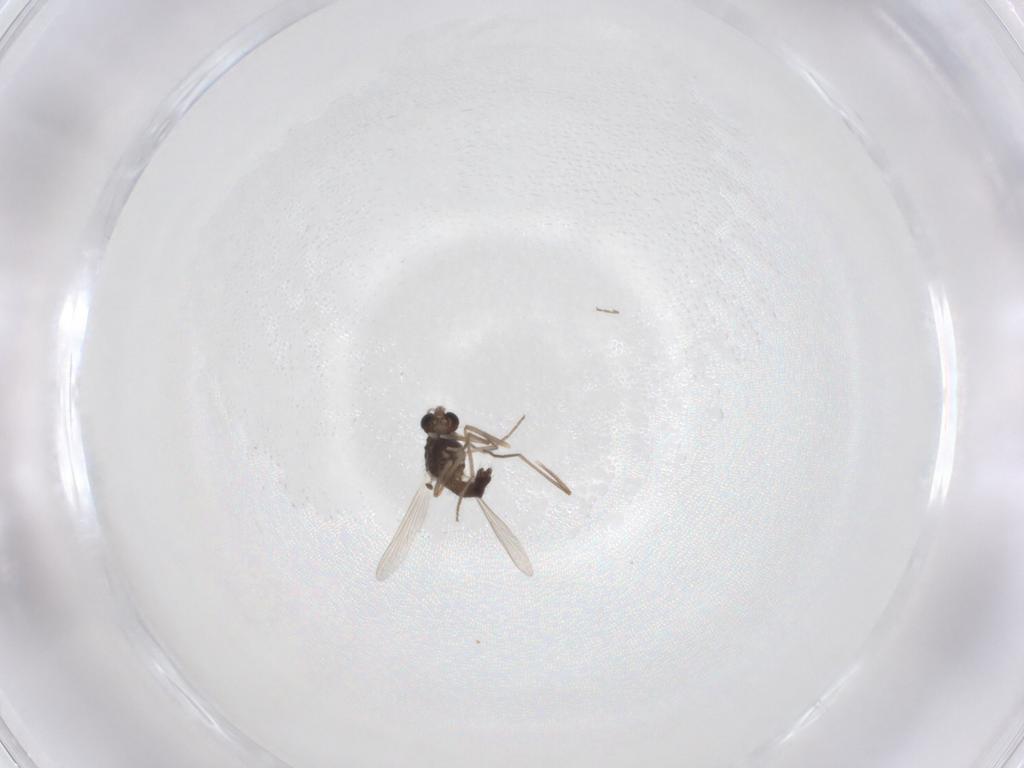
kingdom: Animalia
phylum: Arthropoda
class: Insecta
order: Diptera
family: Chironomidae
